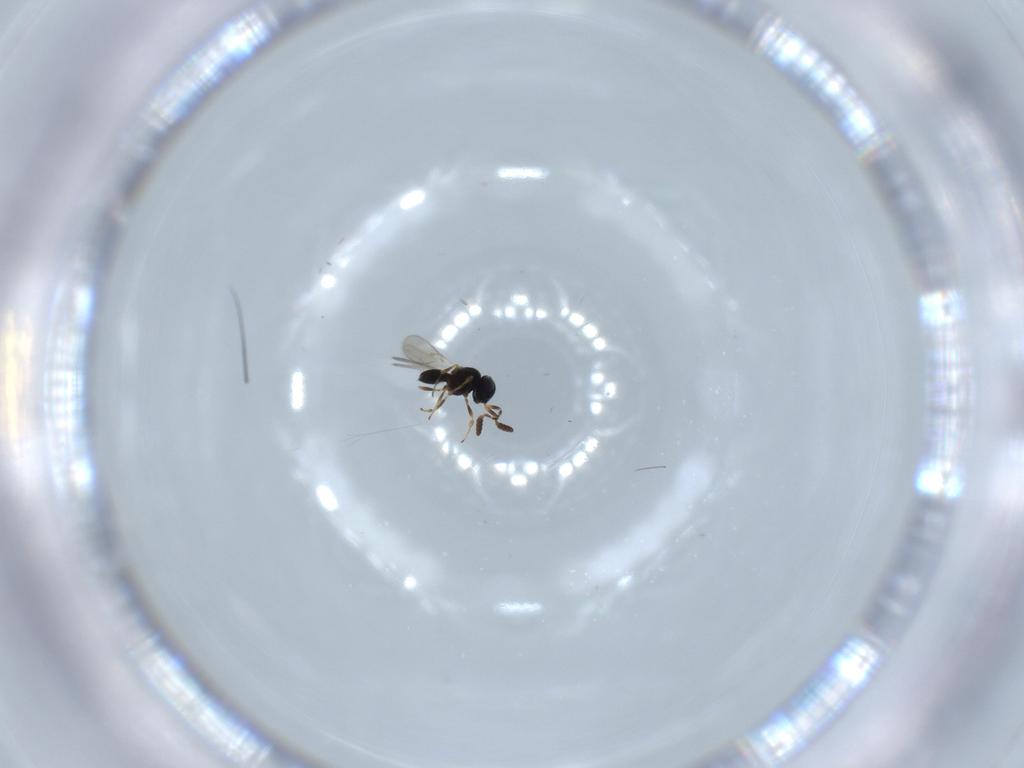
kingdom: Animalia
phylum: Arthropoda
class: Insecta
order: Hymenoptera
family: Scelionidae
